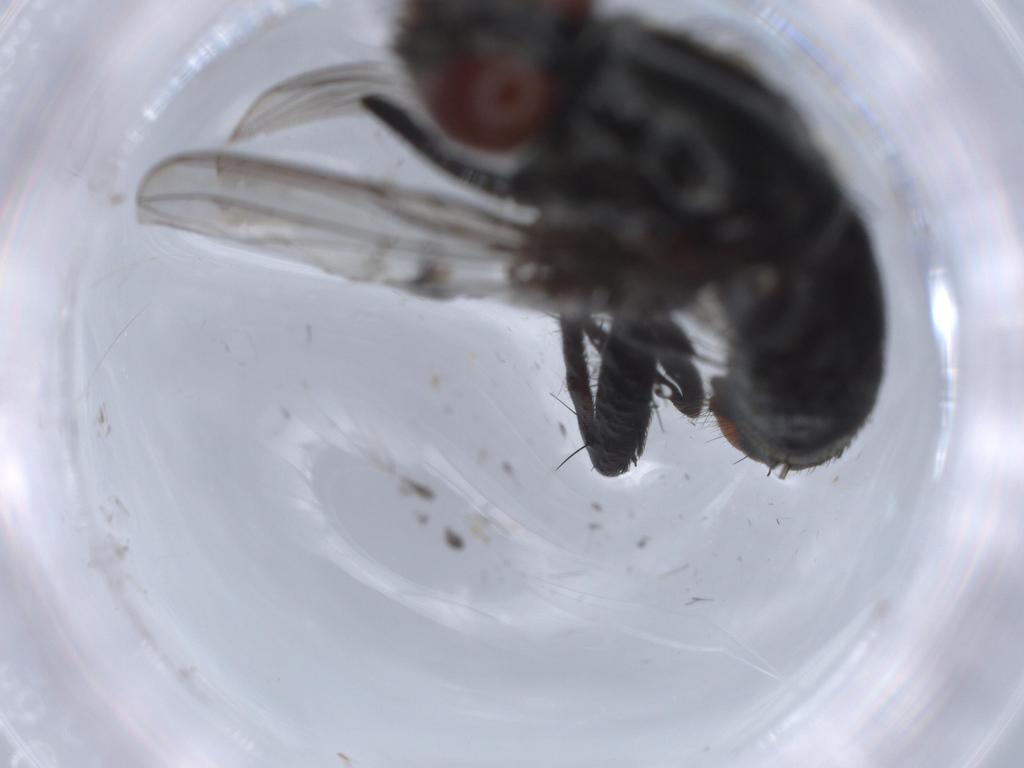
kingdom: Animalia
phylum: Arthropoda
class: Insecta
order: Diptera
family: Sarcophagidae
